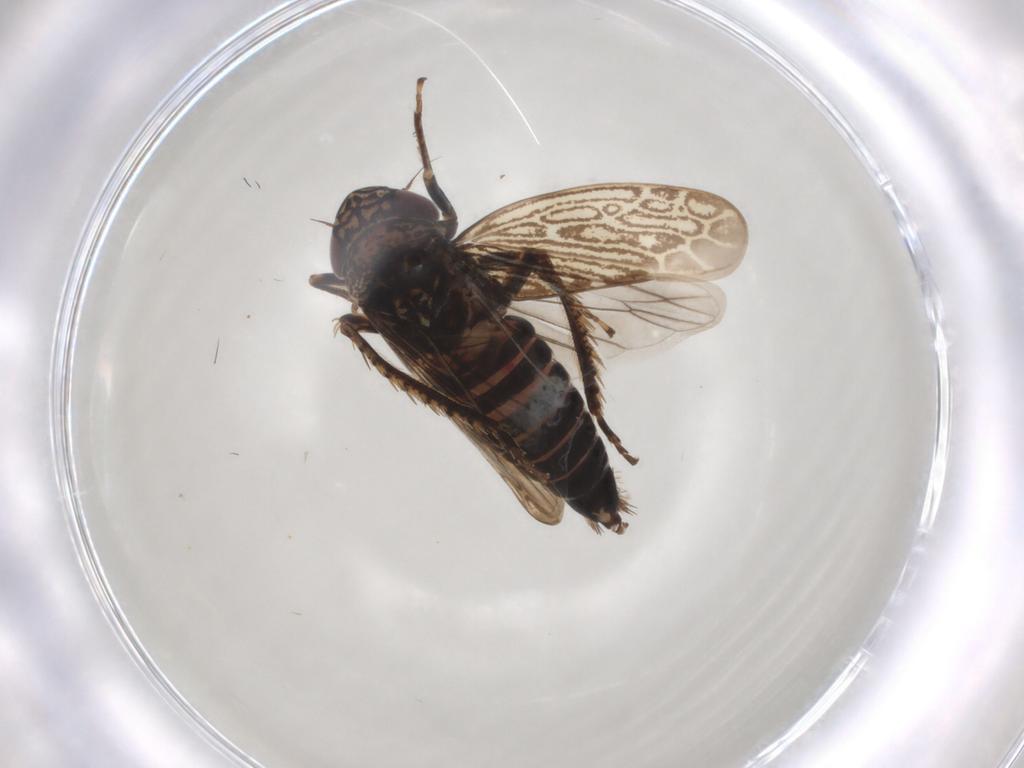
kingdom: Animalia
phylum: Arthropoda
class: Insecta
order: Hemiptera
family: Cicadellidae
